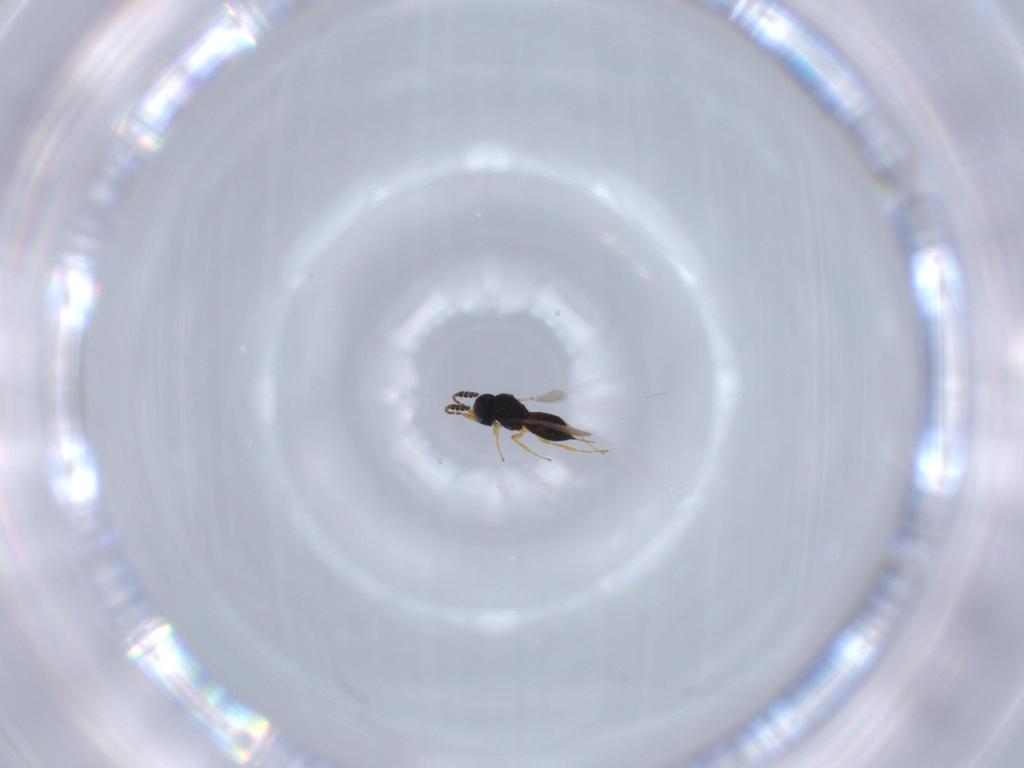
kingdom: Animalia
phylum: Arthropoda
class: Insecta
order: Hymenoptera
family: Scelionidae
